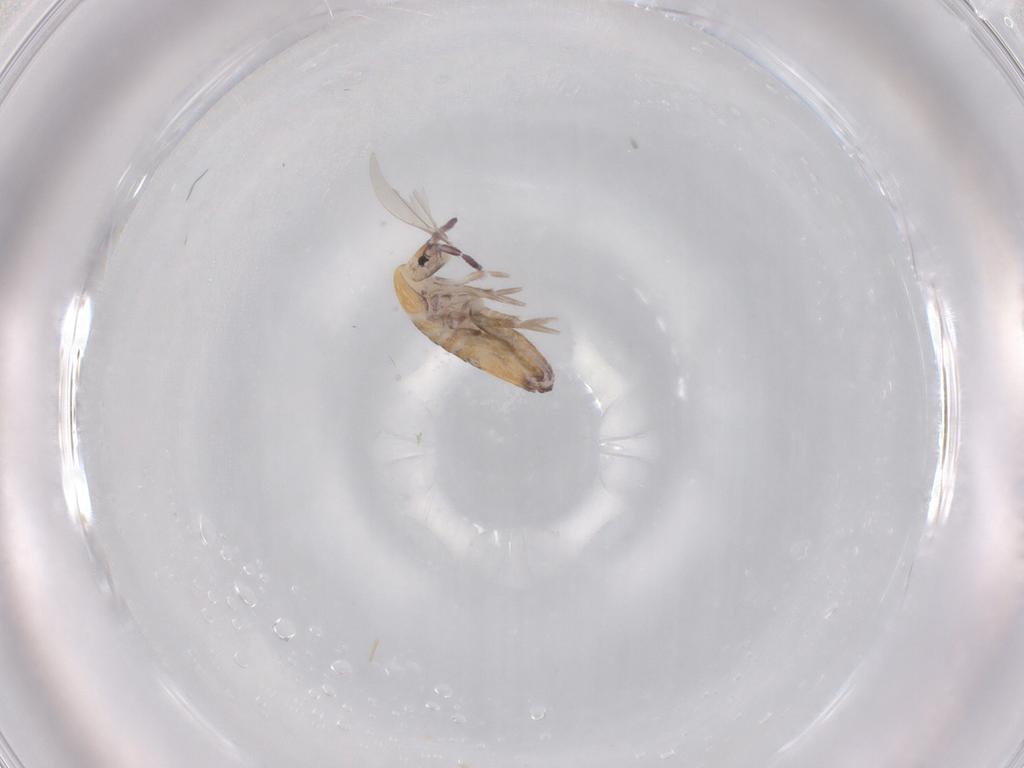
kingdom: Animalia
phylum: Arthropoda
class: Collembola
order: Entomobryomorpha
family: Entomobryidae
